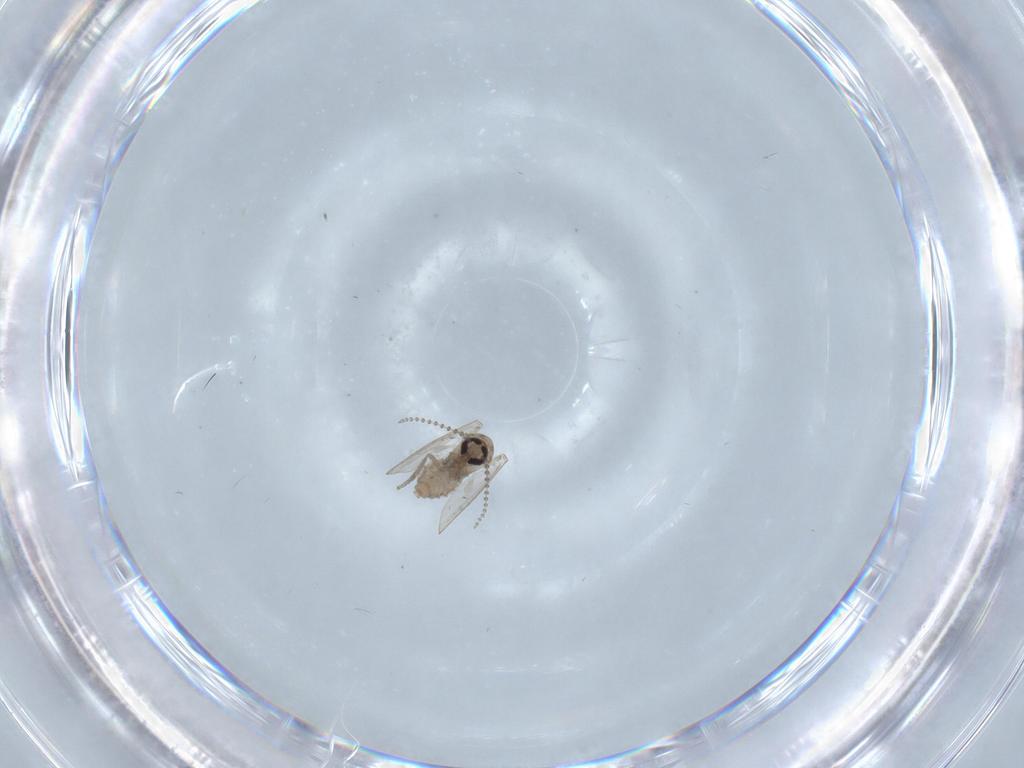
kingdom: Animalia
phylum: Arthropoda
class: Insecta
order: Diptera
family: Psychodidae
